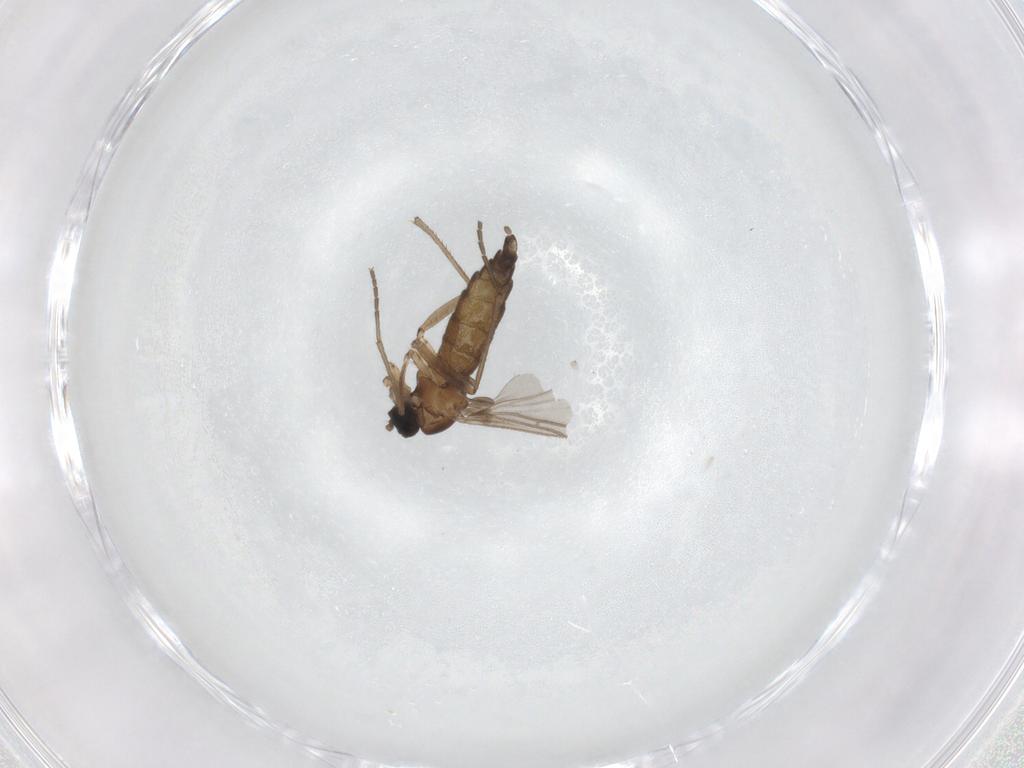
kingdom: Animalia
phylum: Arthropoda
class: Insecta
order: Diptera
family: Sciaridae
